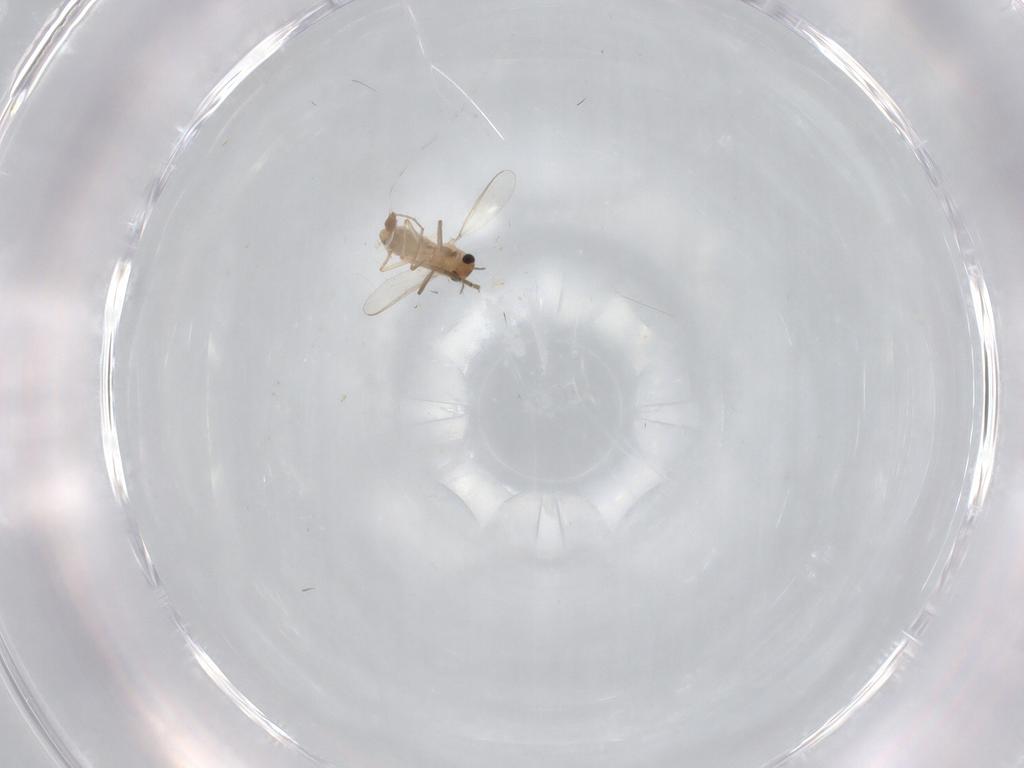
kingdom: Animalia
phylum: Arthropoda
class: Insecta
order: Diptera
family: Chironomidae
